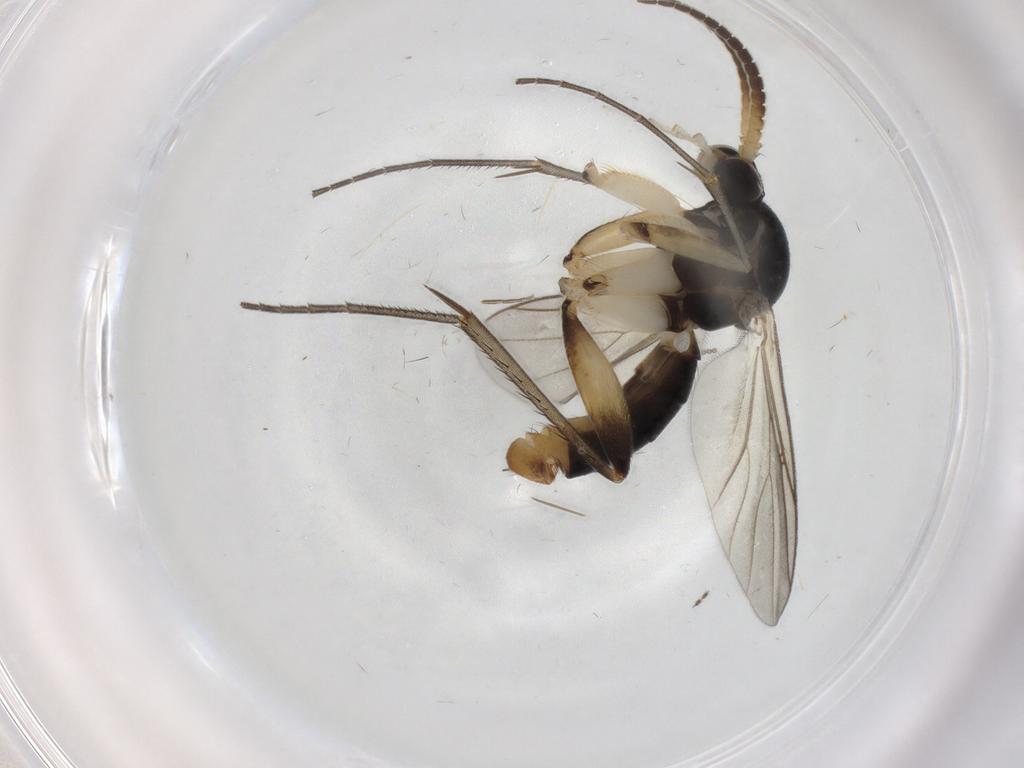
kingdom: Animalia
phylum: Arthropoda
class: Insecta
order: Diptera
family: Mycetophilidae
